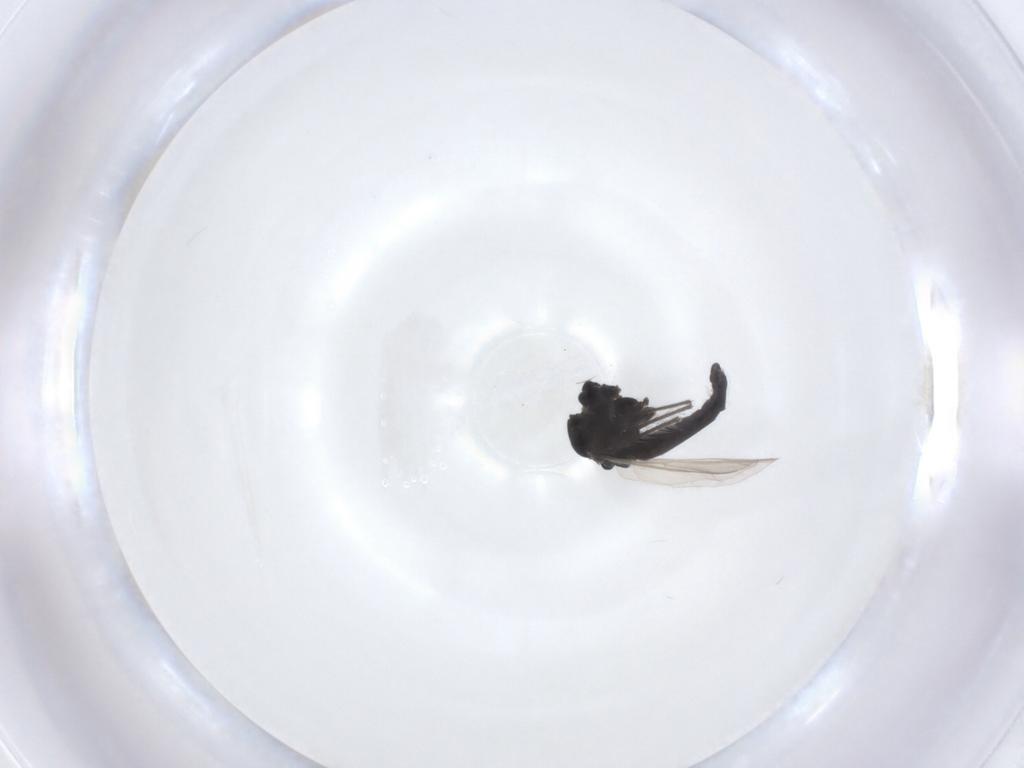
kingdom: Animalia
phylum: Arthropoda
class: Insecta
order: Diptera
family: Chironomidae
